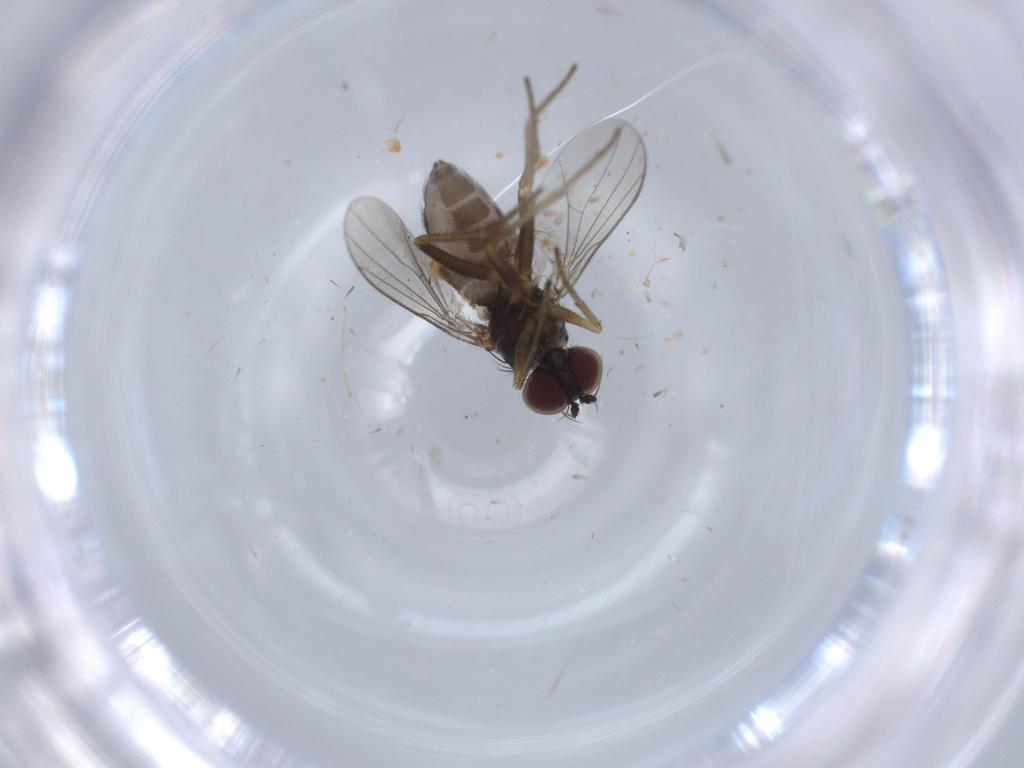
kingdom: Animalia
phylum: Arthropoda
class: Insecta
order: Diptera
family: Dolichopodidae
